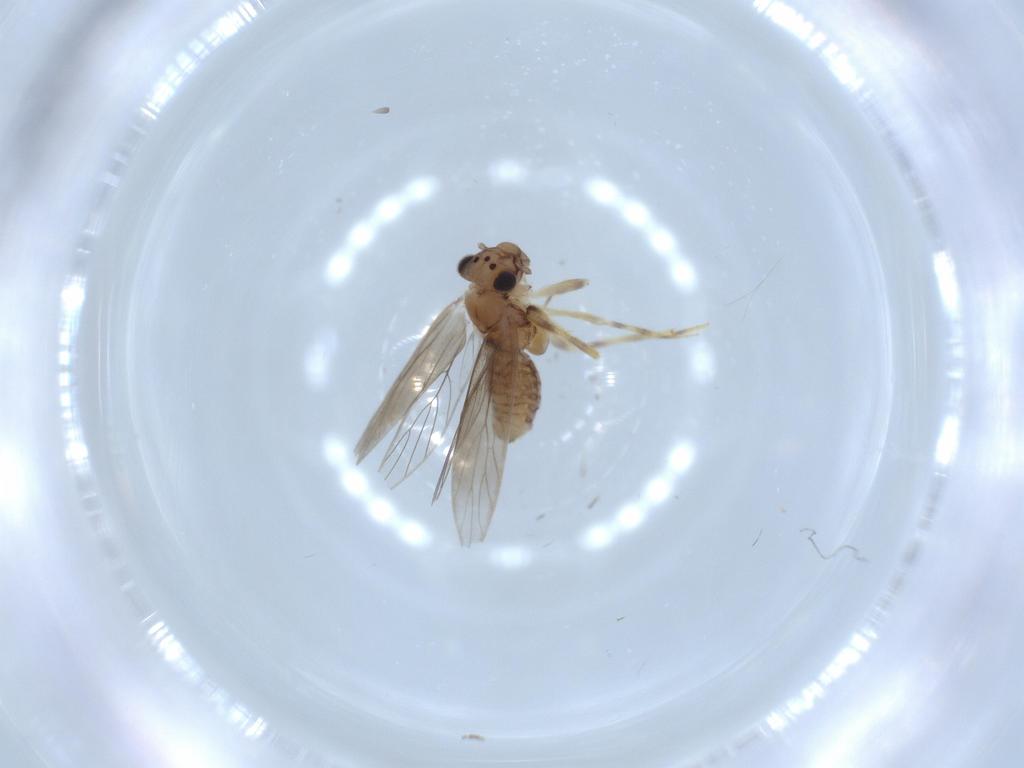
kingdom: Animalia
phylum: Arthropoda
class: Insecta
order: Psocodea
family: Lepidopsocidae
